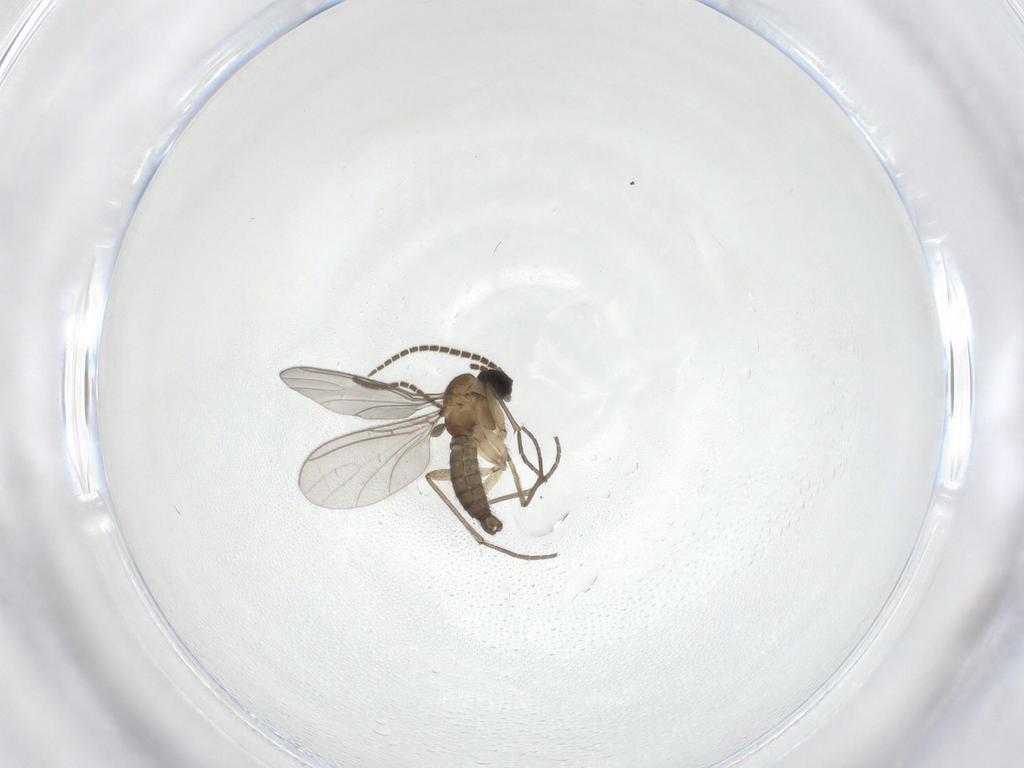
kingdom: Animalia
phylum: Arthropoda
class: Insecta
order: Diptera
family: Sciaridae
